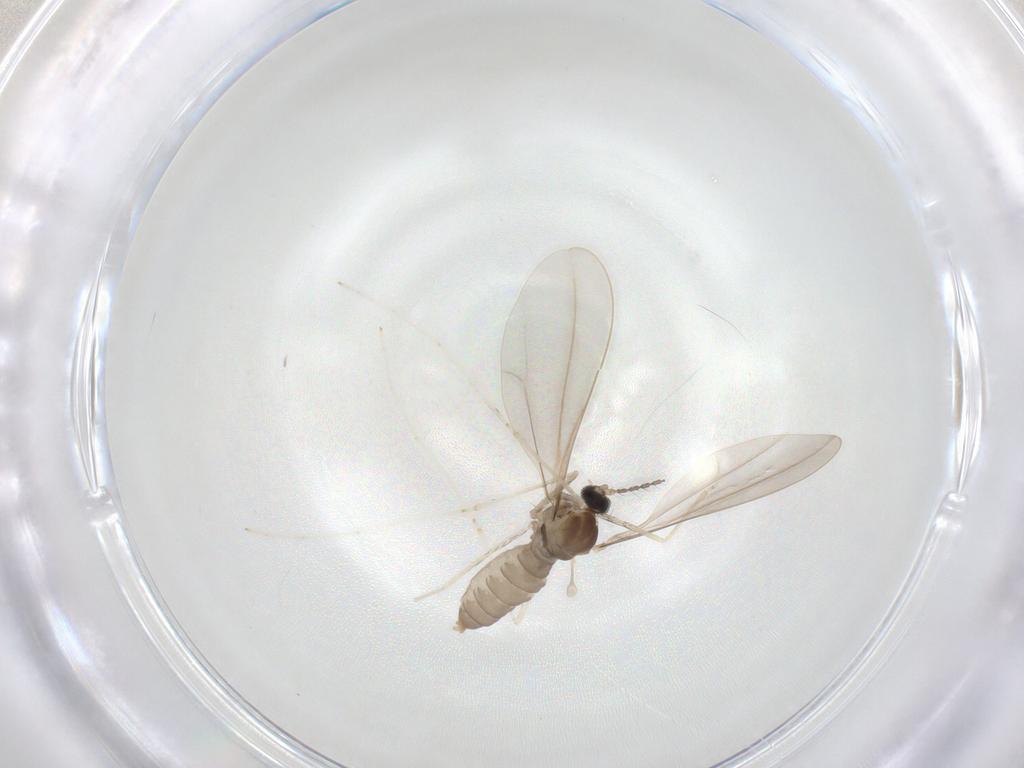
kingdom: Animalia
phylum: Arthropoda
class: Insecta
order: Diptera
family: Cecidomyiidae
